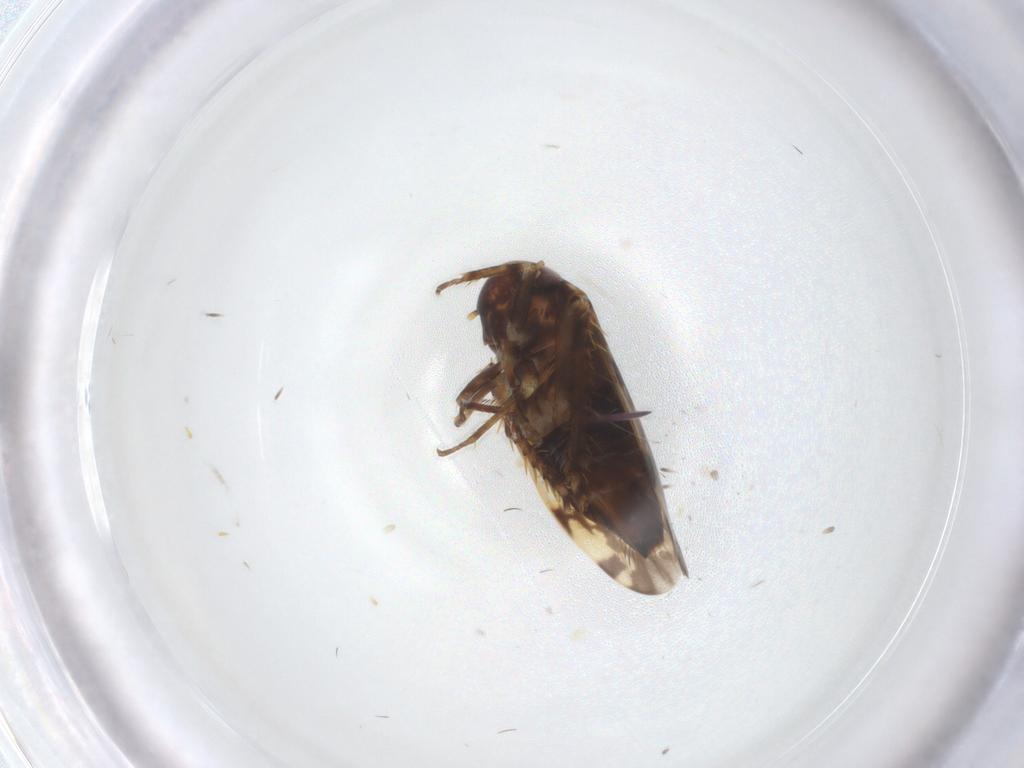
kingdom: Animalia
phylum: Arthropoda
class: Insecta
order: Hemiptera
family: Cicadellidae
